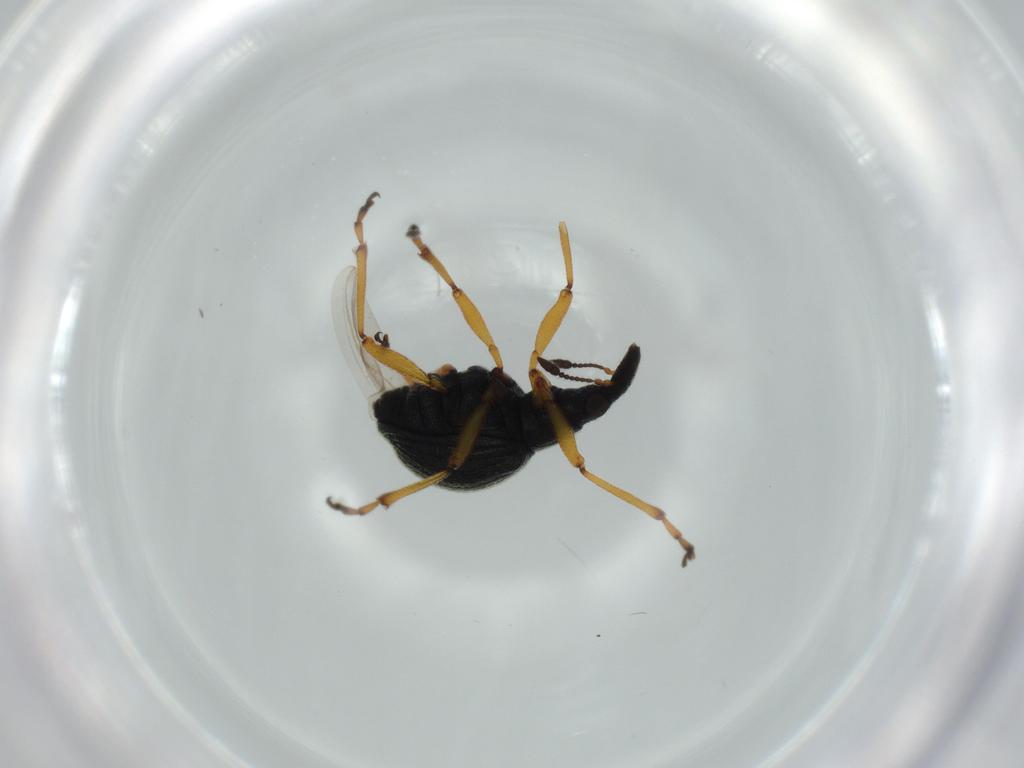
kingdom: Animalia
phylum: Arthropoda
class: Insecta
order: Coleoptera
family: Brentidae
